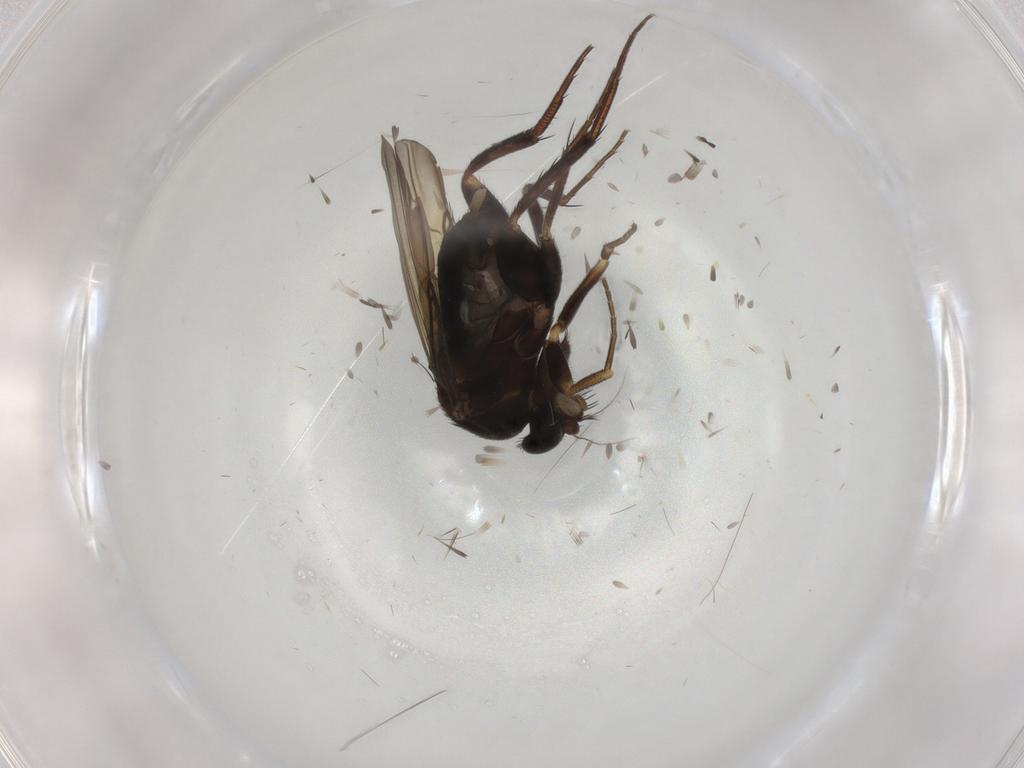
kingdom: Animalia
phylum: Arthropoda
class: Insecta
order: Diptera
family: Phoridae
